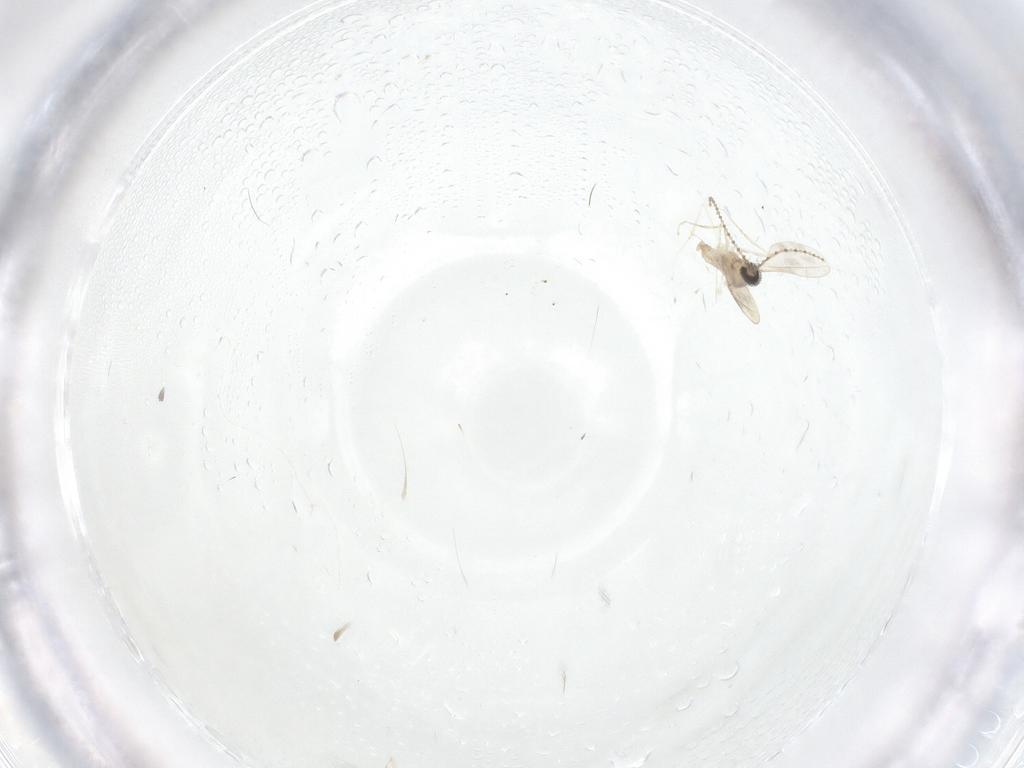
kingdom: Animalia
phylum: Arthropoda
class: Insecta
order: Diptera
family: Cecidomyiidae
